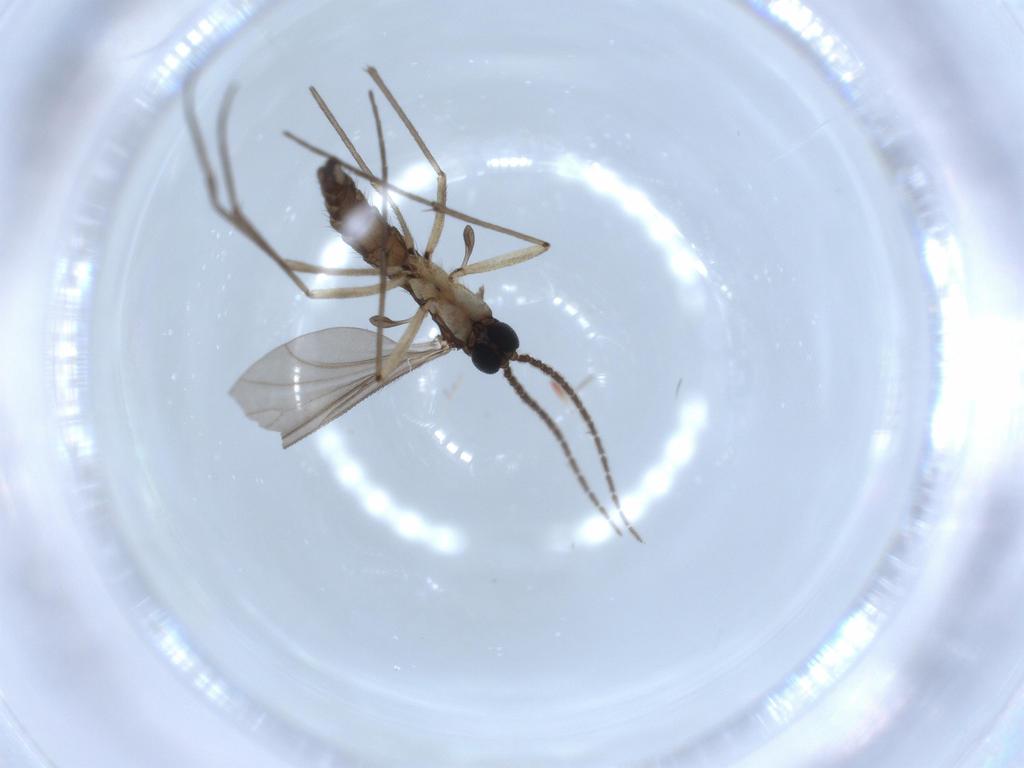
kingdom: Animalia
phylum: Arthropoda
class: Insecta
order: Diptera
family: Sciaridae
